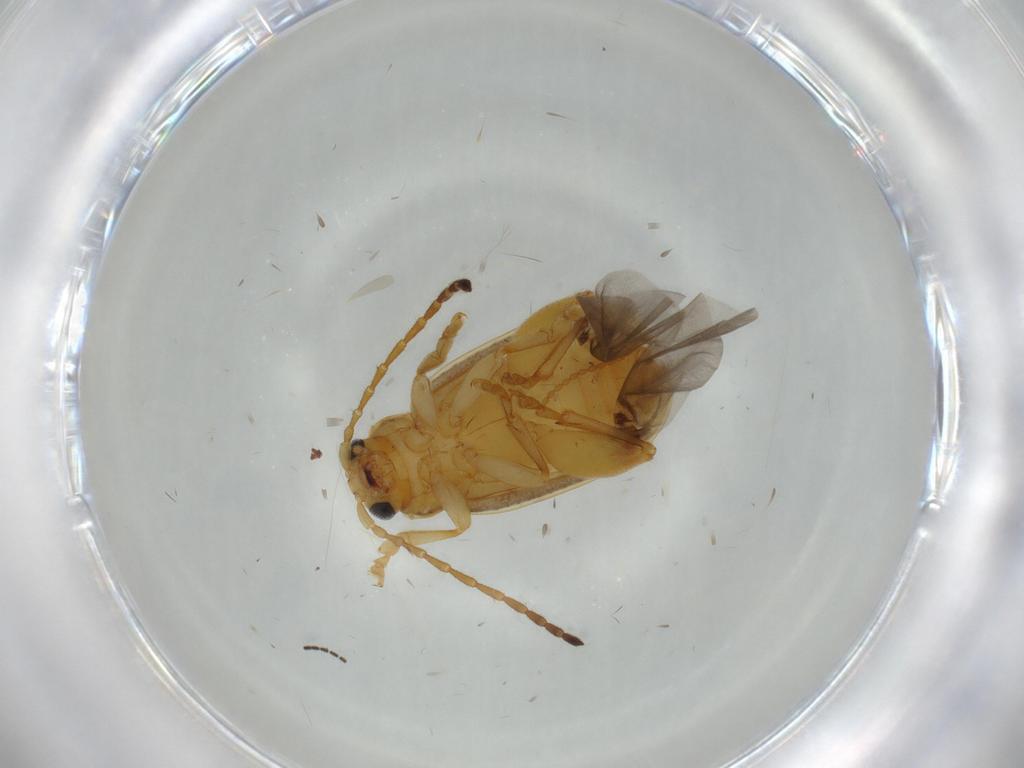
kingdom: Animalia
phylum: Arthropoda
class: Insecta
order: Coleoptera
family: Chrysomelidae
